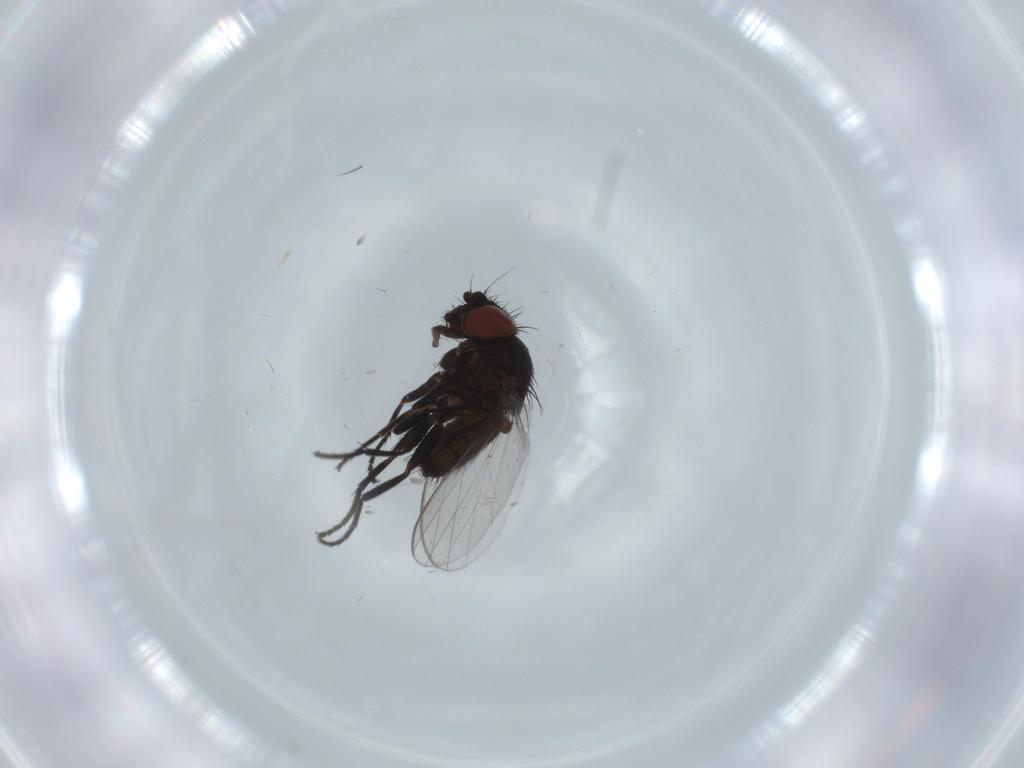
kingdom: Animalia
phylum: Arthropoda
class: Insecta
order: Diptera
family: Milichiidae
